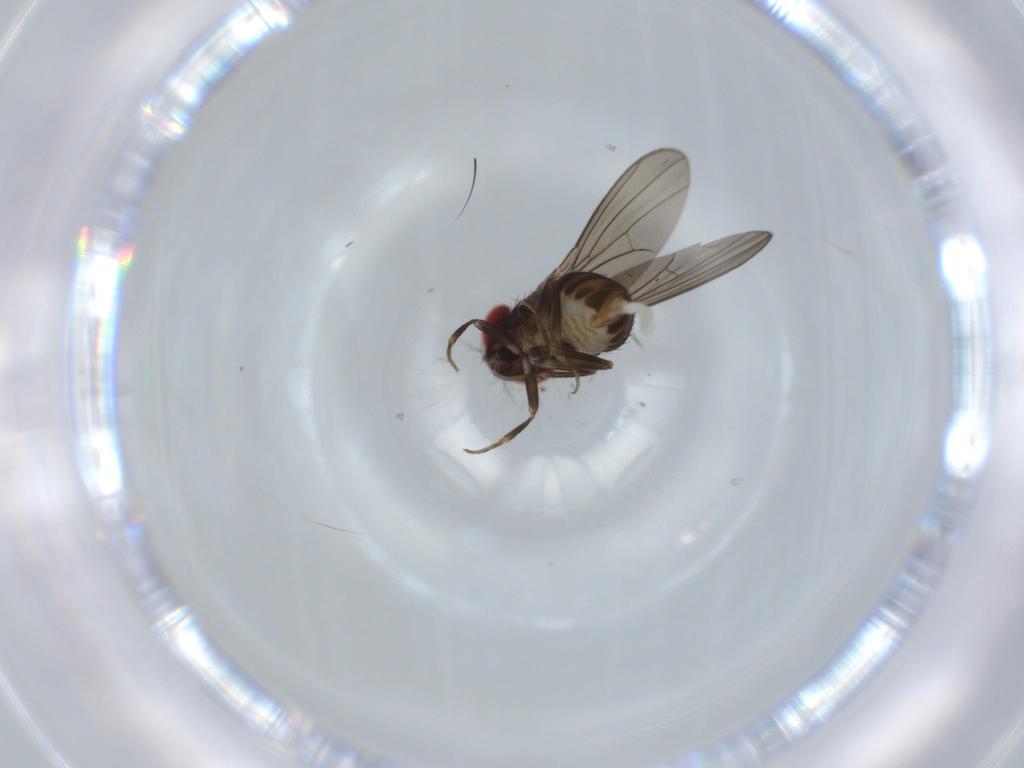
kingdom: Animalia
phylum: Arthropoda
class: Insecta
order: Diptera
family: Drosophilidae
